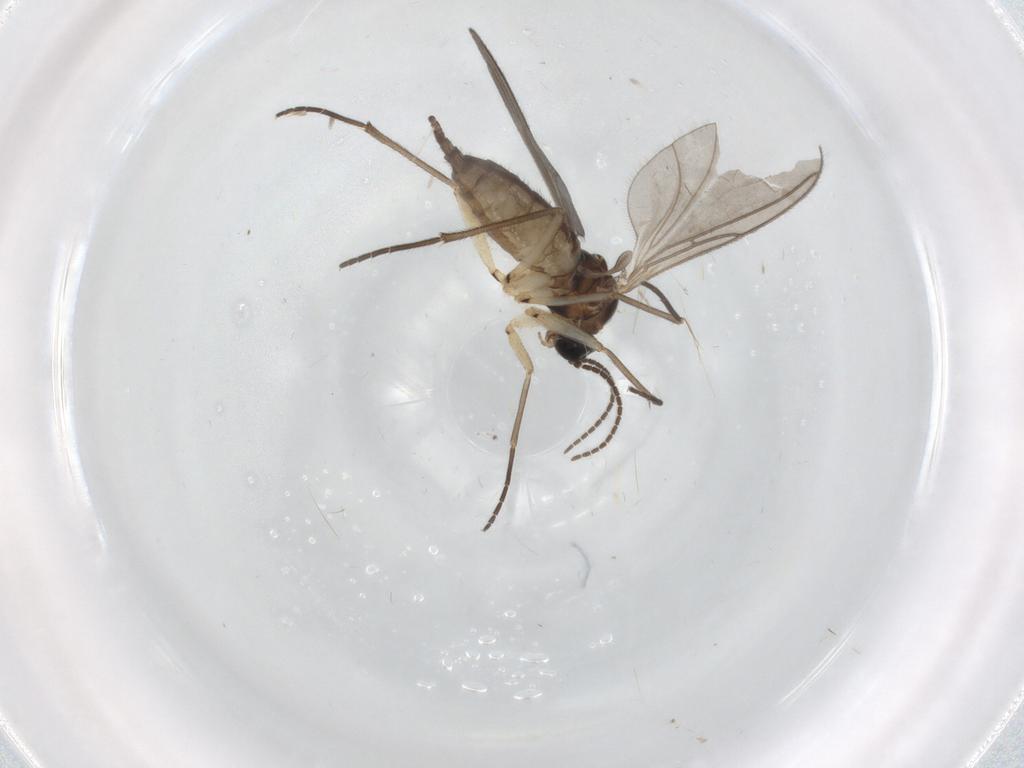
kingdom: Animalia
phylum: Arthropoda
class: Insecta
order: Diptera
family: Sciaridae
